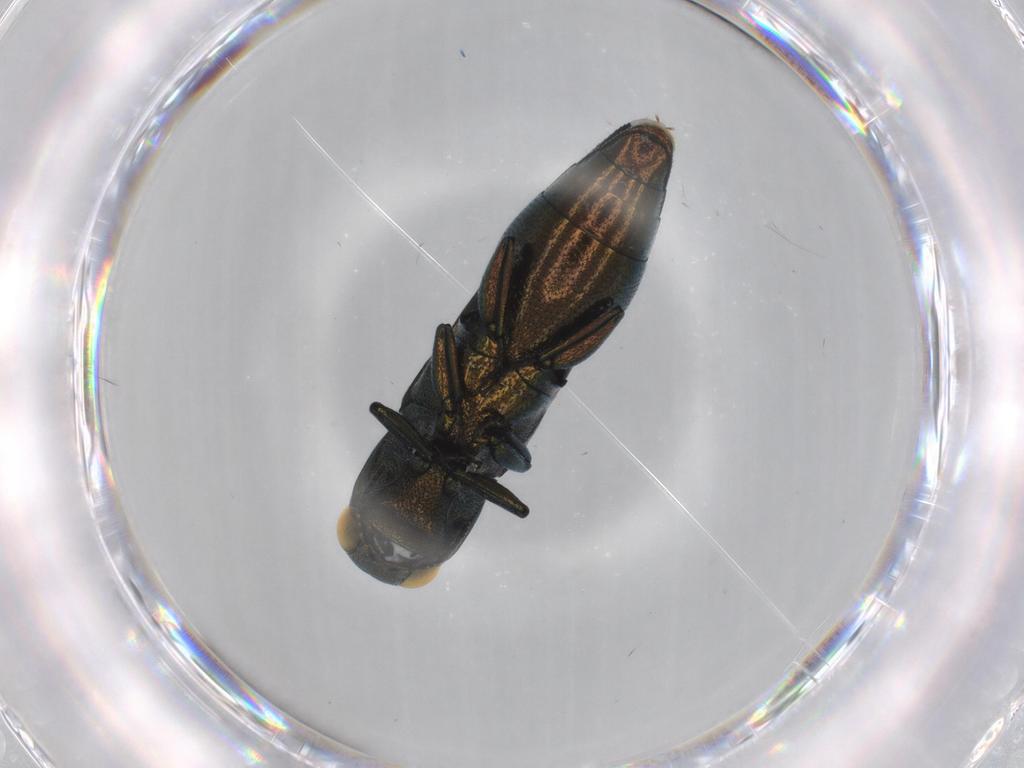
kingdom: Animalia
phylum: Arthropoda
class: Insecta
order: Coleoptera
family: Buprestidae
